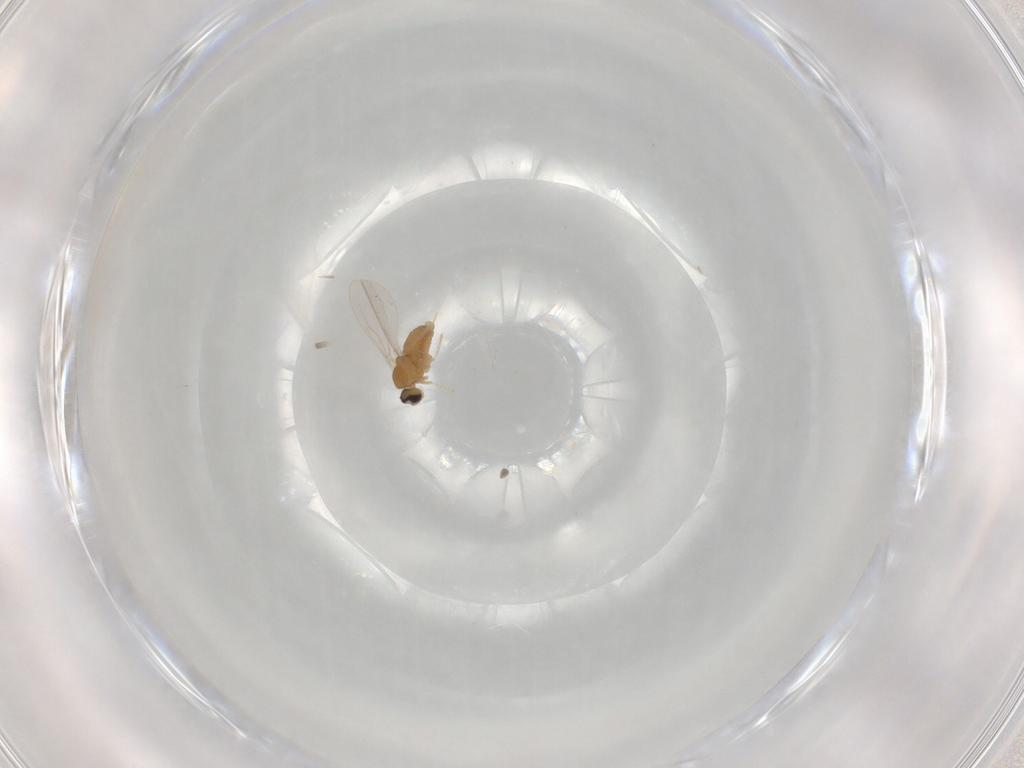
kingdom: Animalia
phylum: Arthropoda
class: Insecta
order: Diptera
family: Cecidomyiidae
